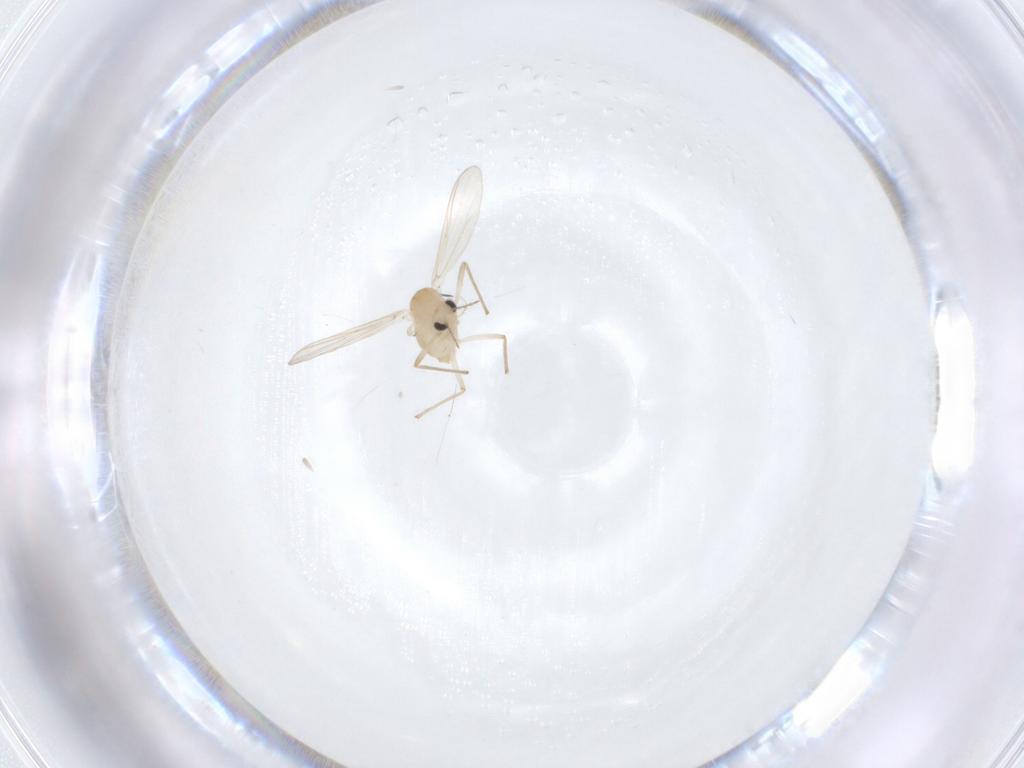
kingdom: Animalia
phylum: Arthropoda
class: Insecta
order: Diptera
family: Chironomidae
